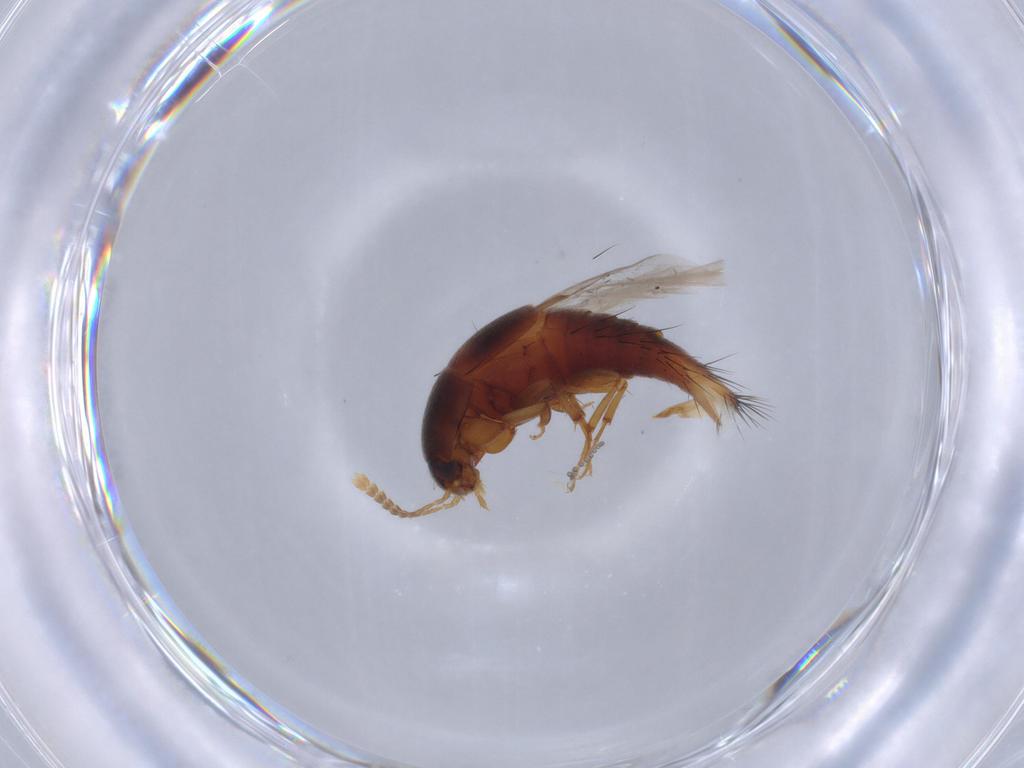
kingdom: Animalia
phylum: Arthropoda
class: Insecta
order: Coleoptera
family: Staphylinidae
